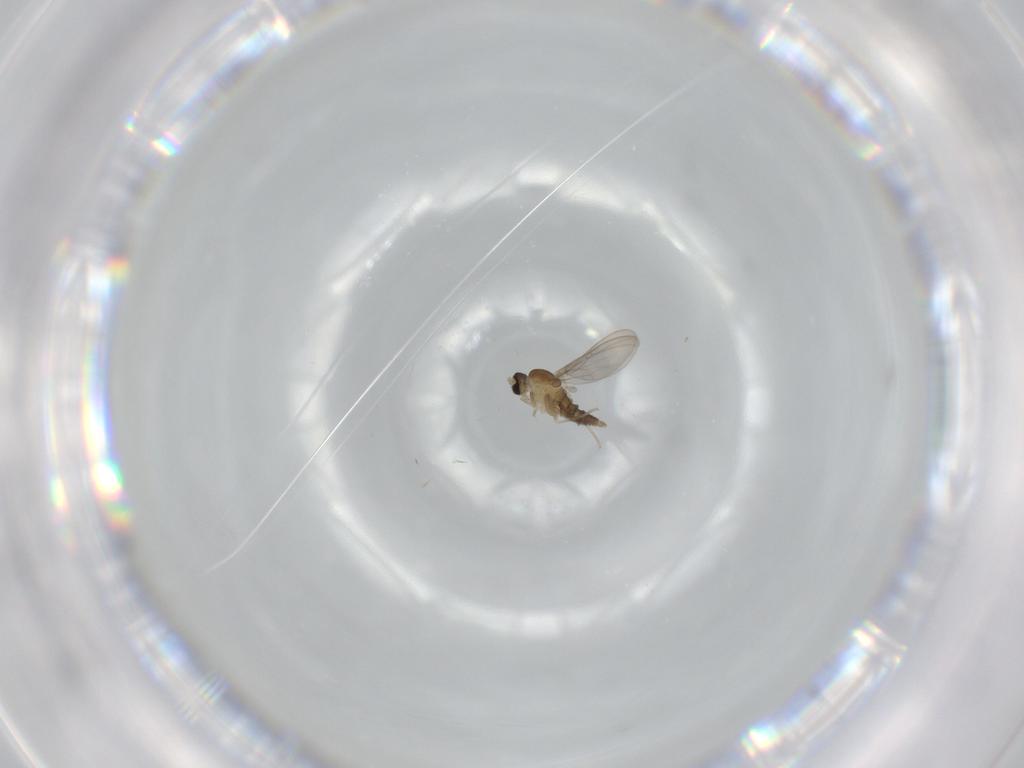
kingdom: Animalia
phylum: Arthropoda
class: Insecta
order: Diptera
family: Cecidomyiidae
